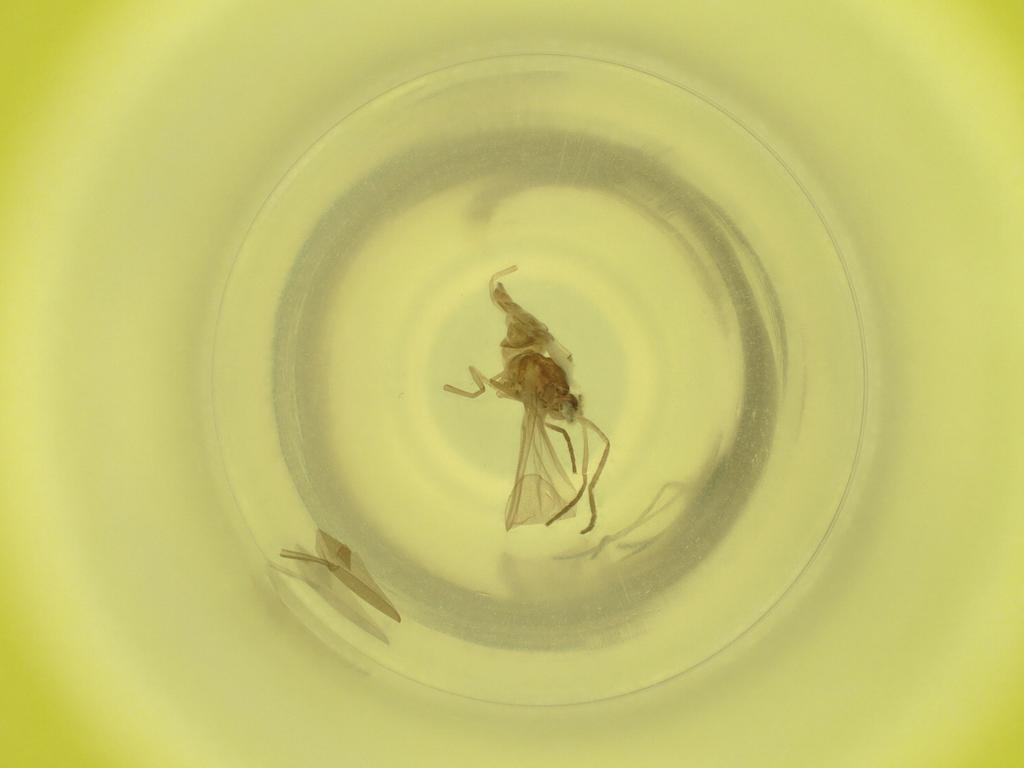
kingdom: Animalia
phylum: Arthropoda
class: Insecta
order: Diptera
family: Cecidomyiidae
